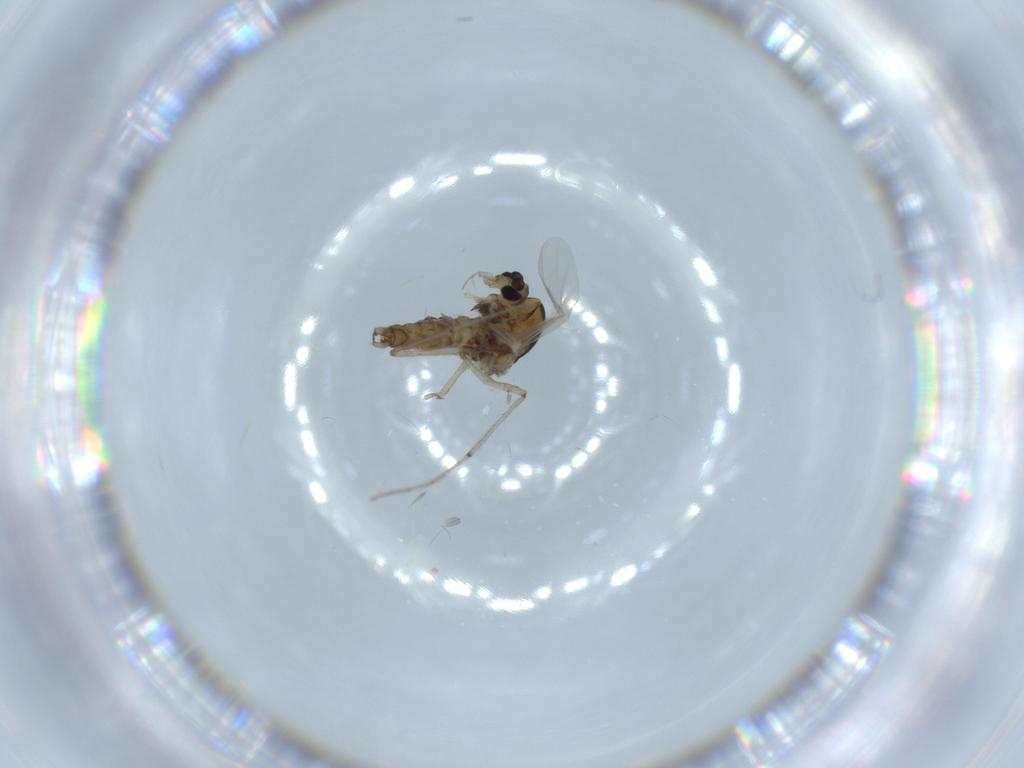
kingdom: Animalia
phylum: Arthropoda
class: Insecta
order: Diptera
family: Chironomidae
